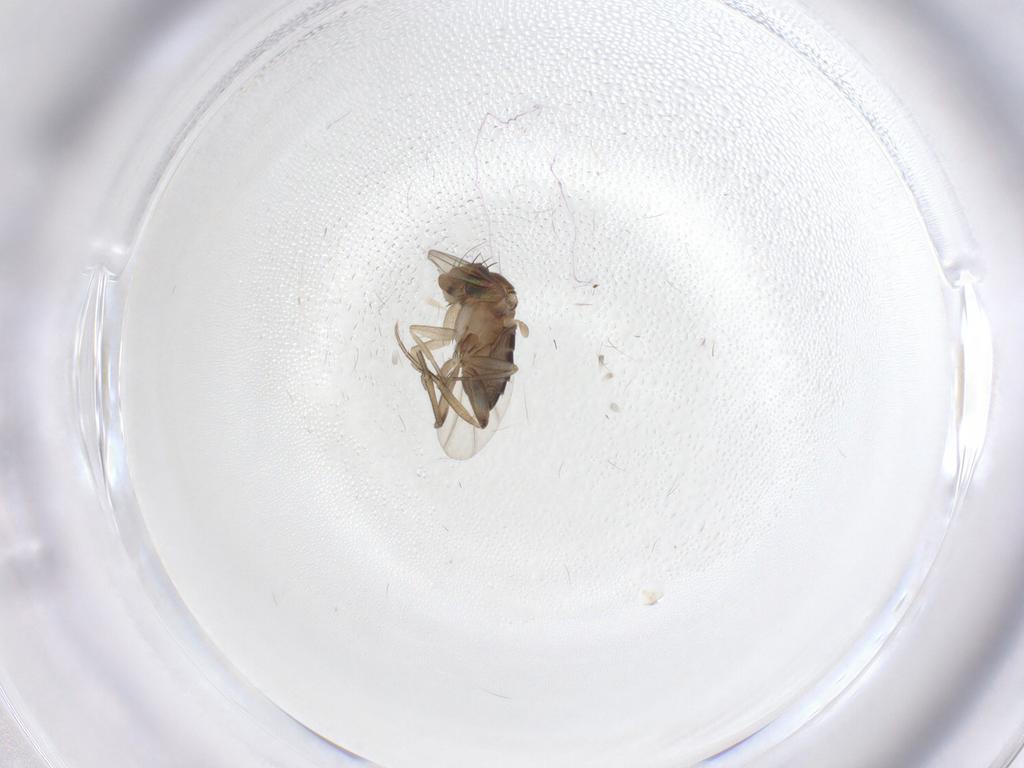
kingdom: Animalia
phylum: Arthropoda
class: Insecta
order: Diptera
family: Phoridae
